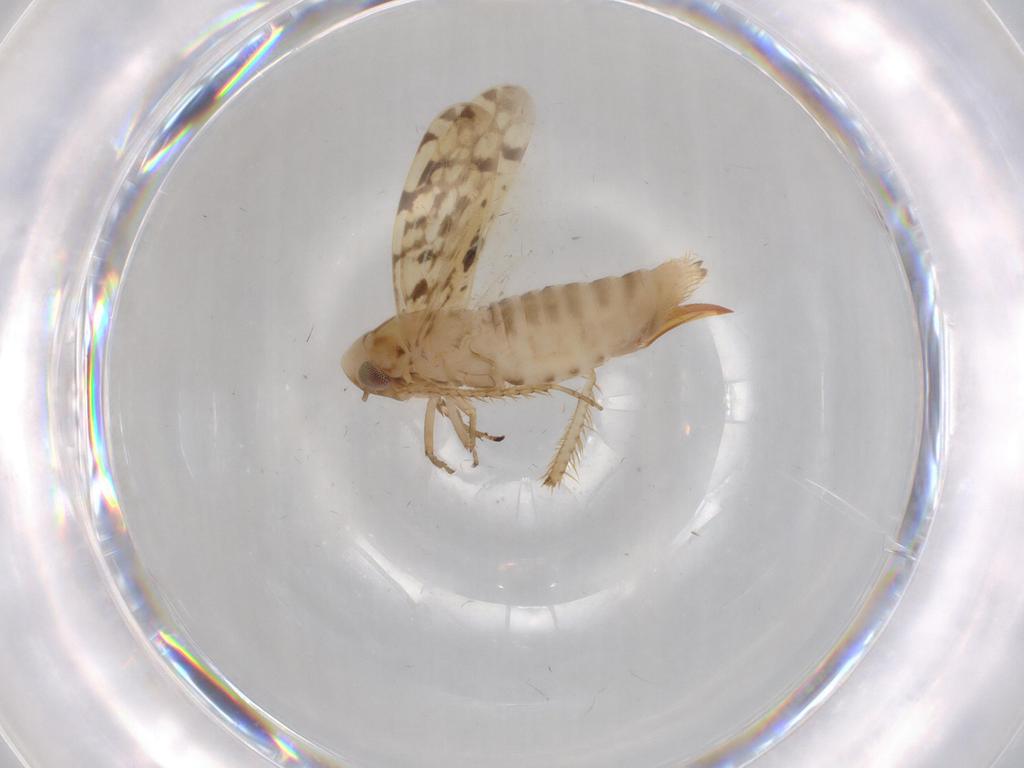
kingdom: Animalia
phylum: Arthropoda
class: Insecta
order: Hemiptera
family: Cicadellidae
